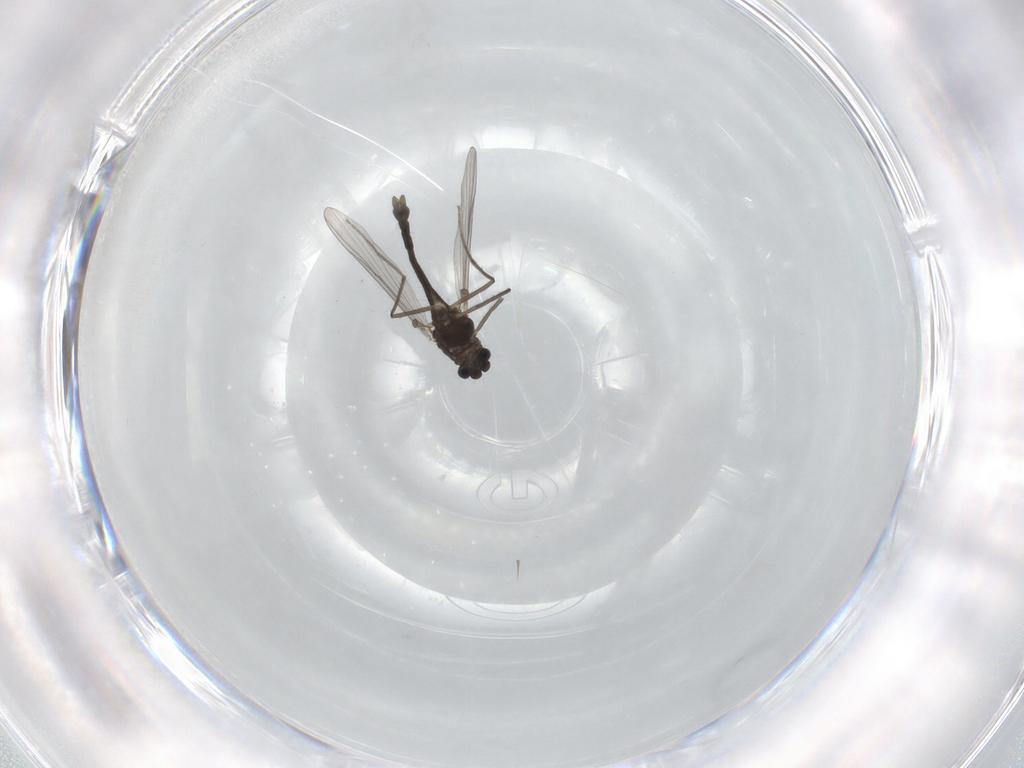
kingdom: Animalia
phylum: Arthropoda
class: Insecta
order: Diptera
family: Chironomidae
